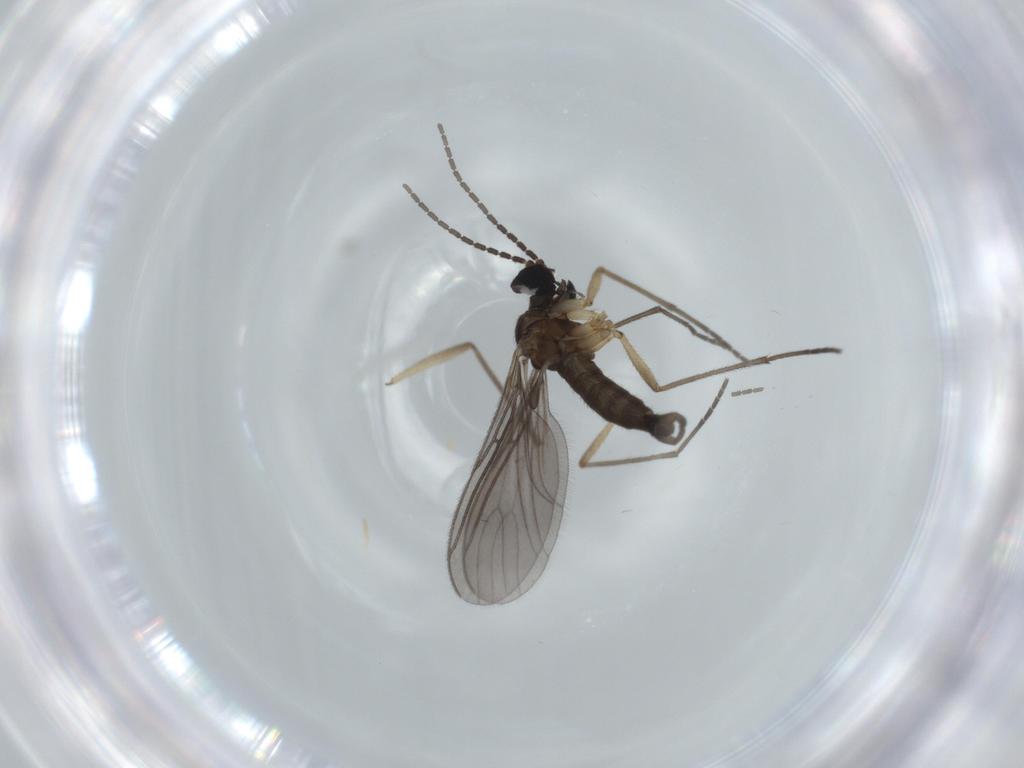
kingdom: Animalia
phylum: Arthropoda
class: Insecta
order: Diptera
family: Sciaridae
